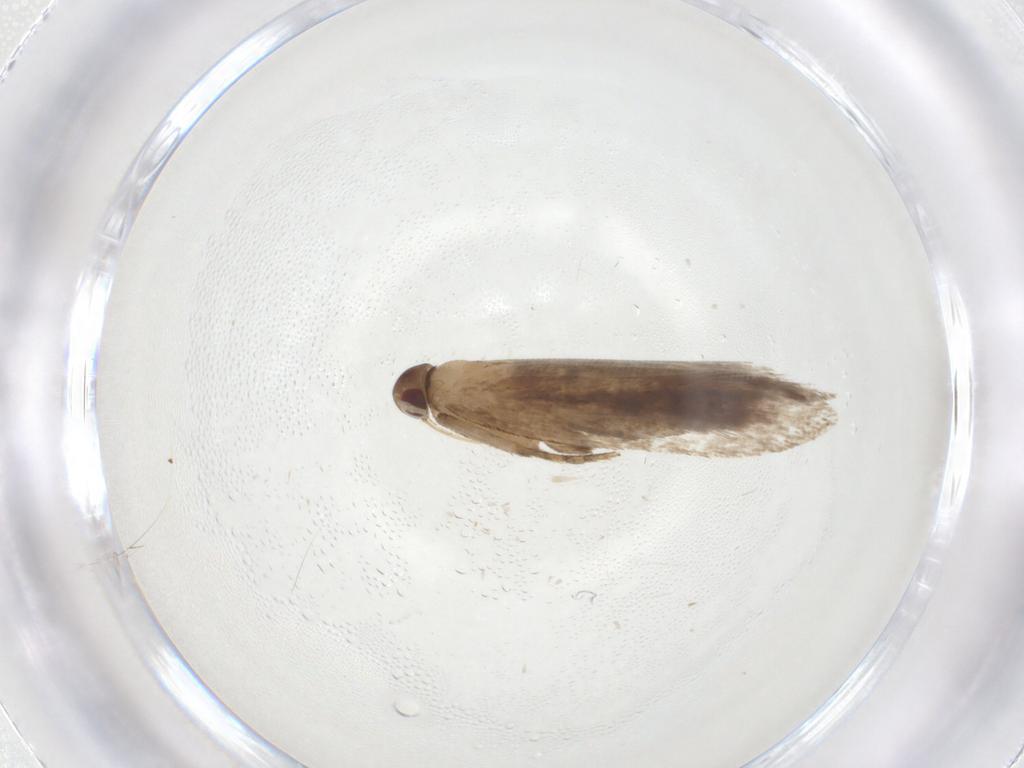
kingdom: Animalia
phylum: Arthropoda
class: Insecta
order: Lepidoptera
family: Gelechiidae
